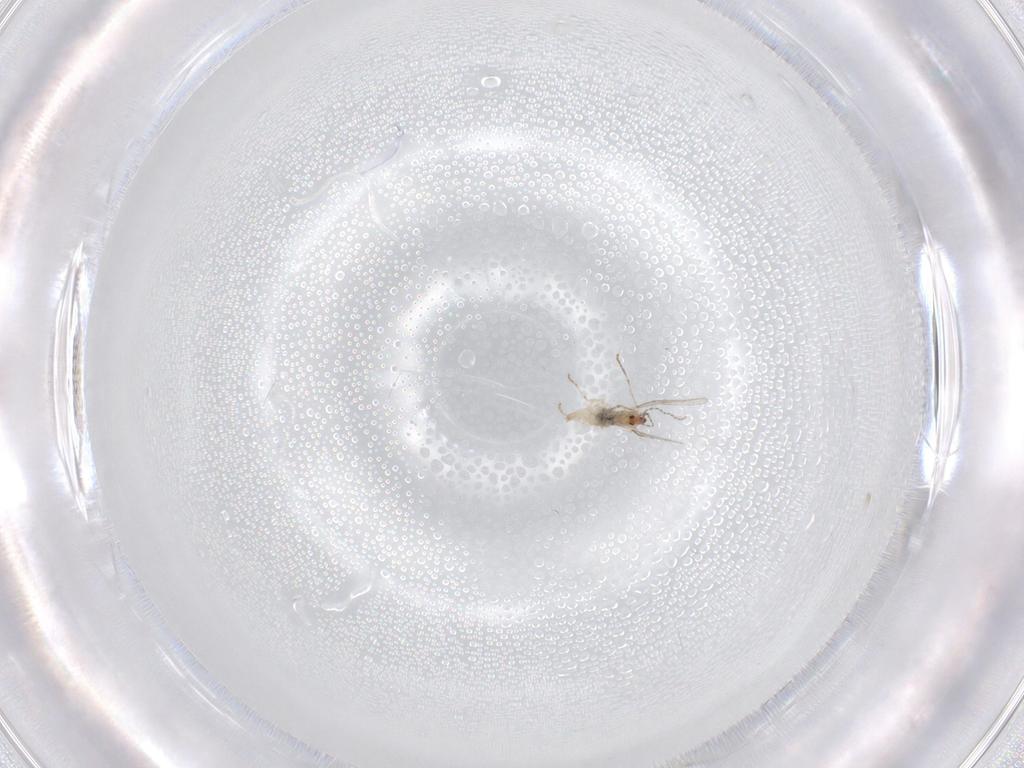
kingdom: Animalia
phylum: Arthropoda
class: Insecta
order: Diptera
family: Cecidomyiidae
